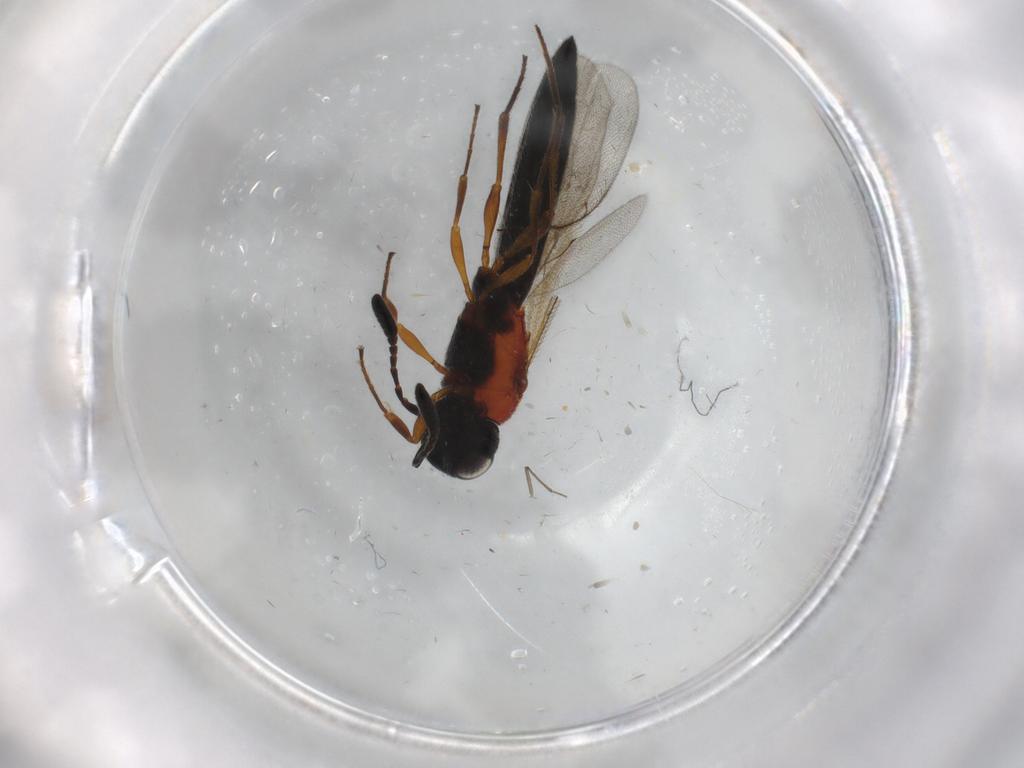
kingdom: Animalia
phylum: Arthropoda
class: Insecta
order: Hymenoptera
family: Scelionidae
